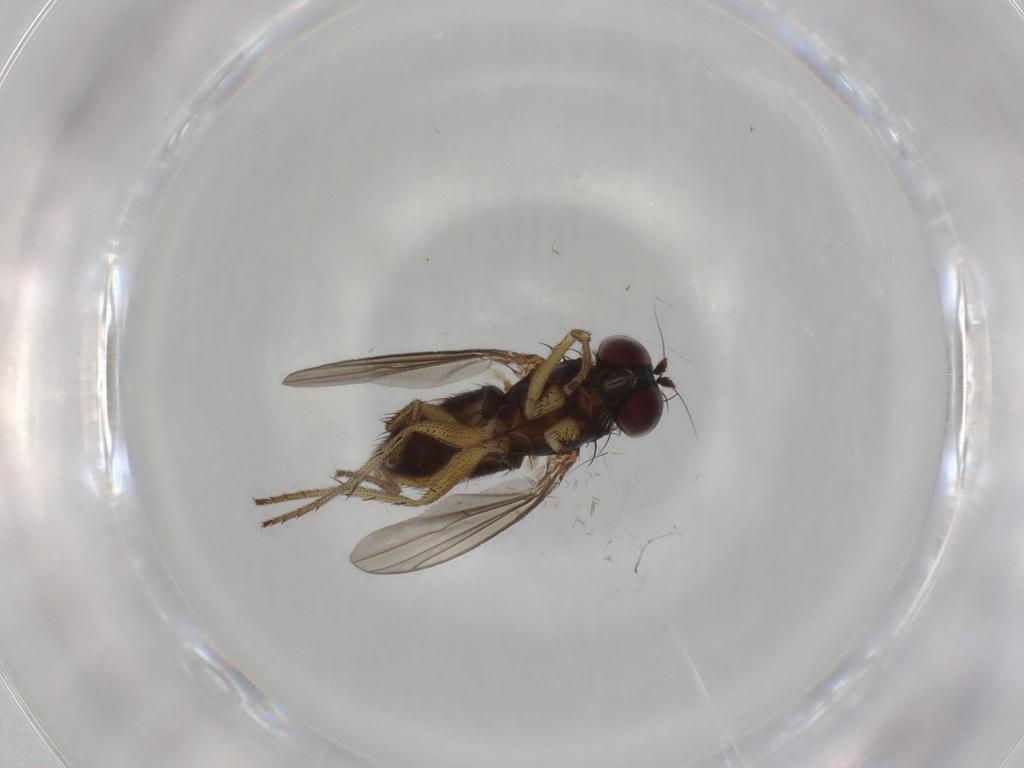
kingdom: Animalia
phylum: Arthropoda
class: Insecta
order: Diptera
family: Dolichopodidae
